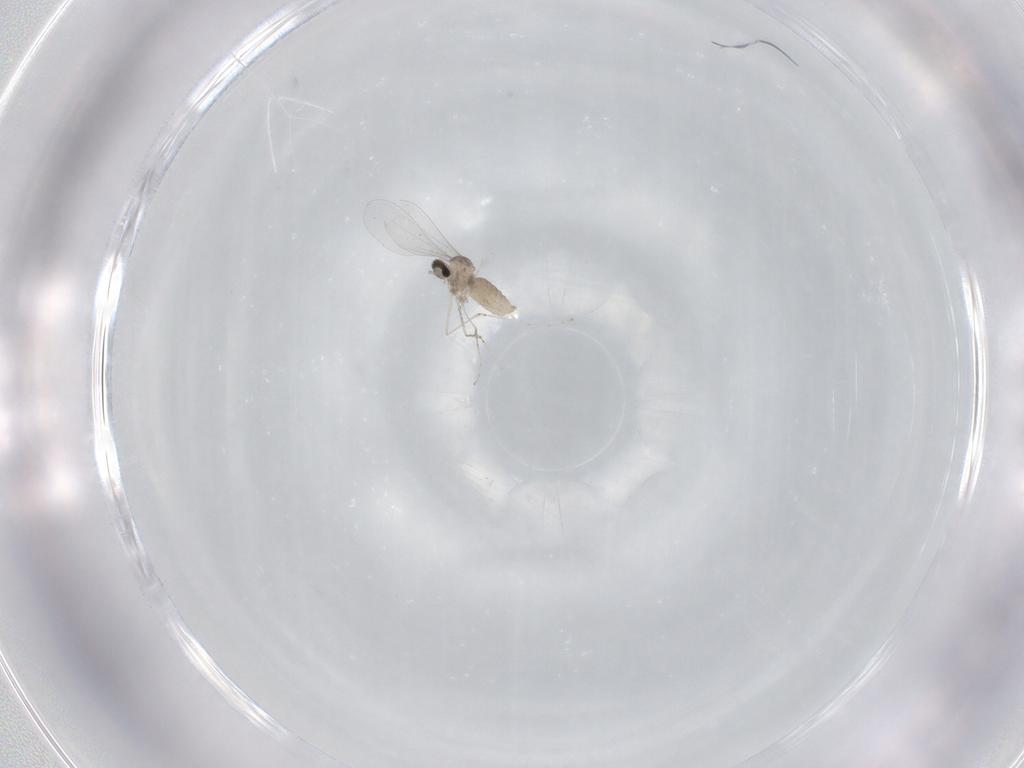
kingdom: Animalia
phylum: Arthropoda
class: Insecta
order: Diptera
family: Cecidomyiidae
